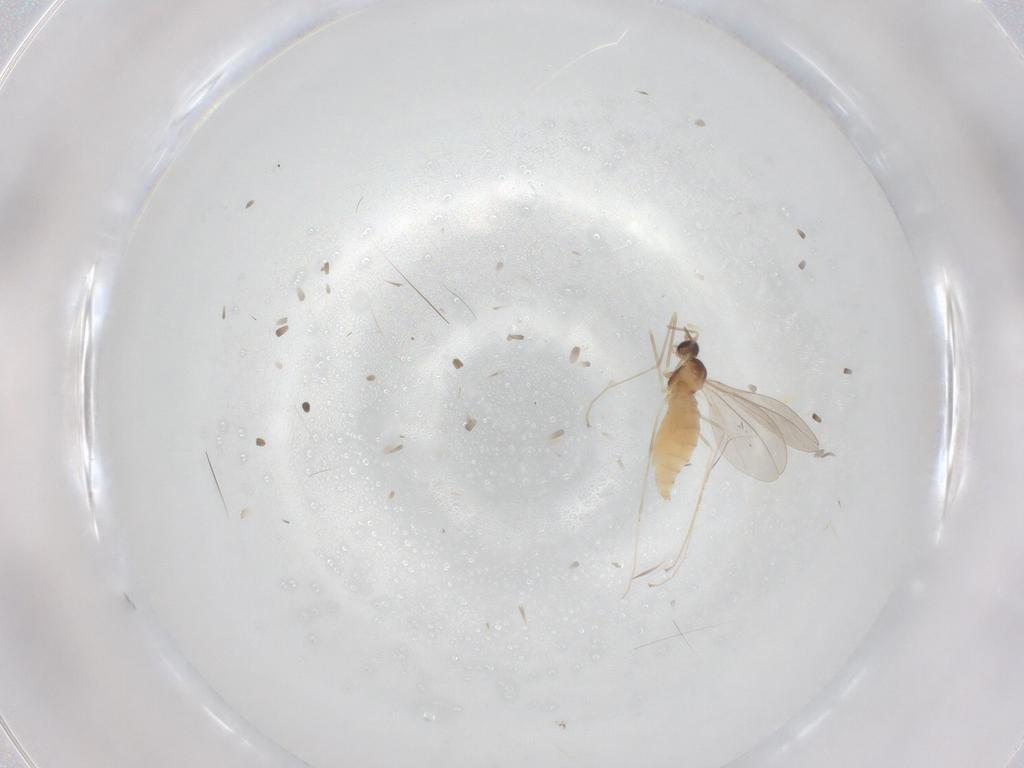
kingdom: Animalia
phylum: Arthropoda
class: Insecta
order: Diptera
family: Cecidomyiidae
